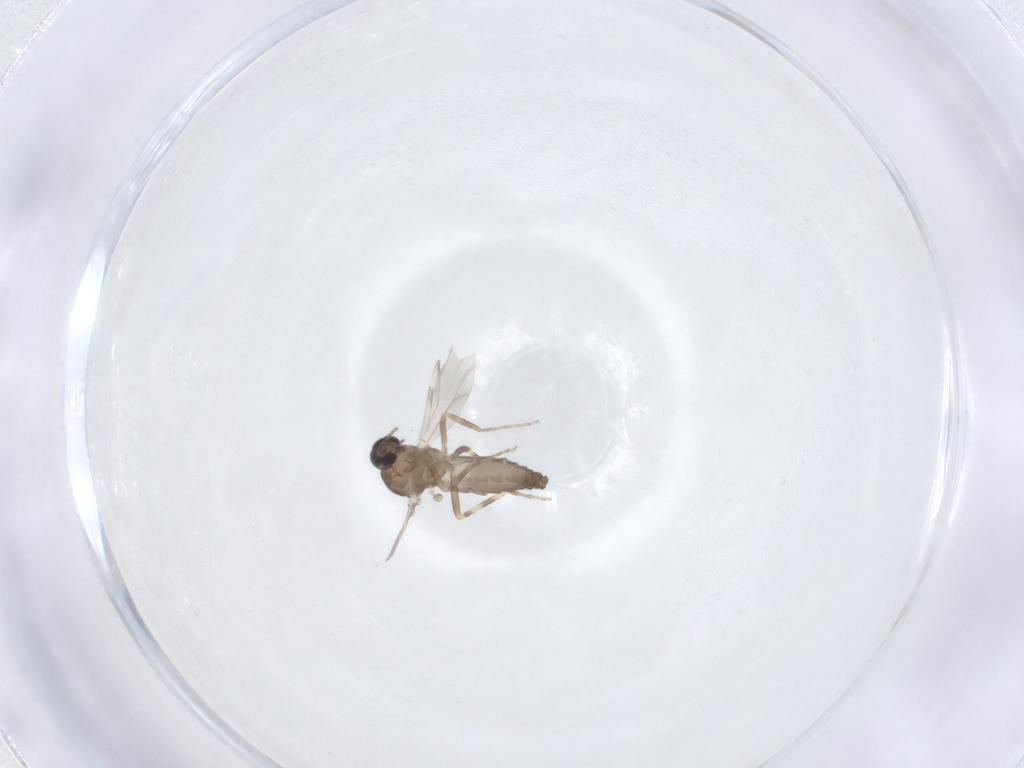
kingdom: Animalia
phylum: Arthropoda
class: Insecta
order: Diptera
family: Ceratopogonidae
